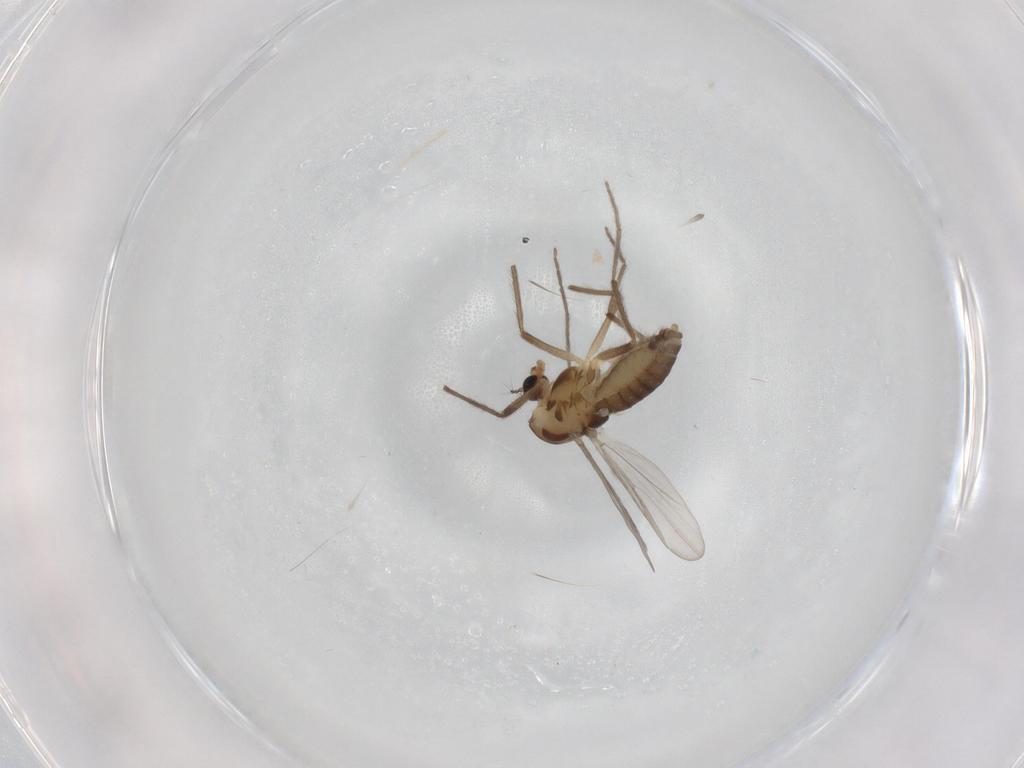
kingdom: Animalia
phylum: Arthropoda
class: Insecta
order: Diptera
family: Chironomidae
